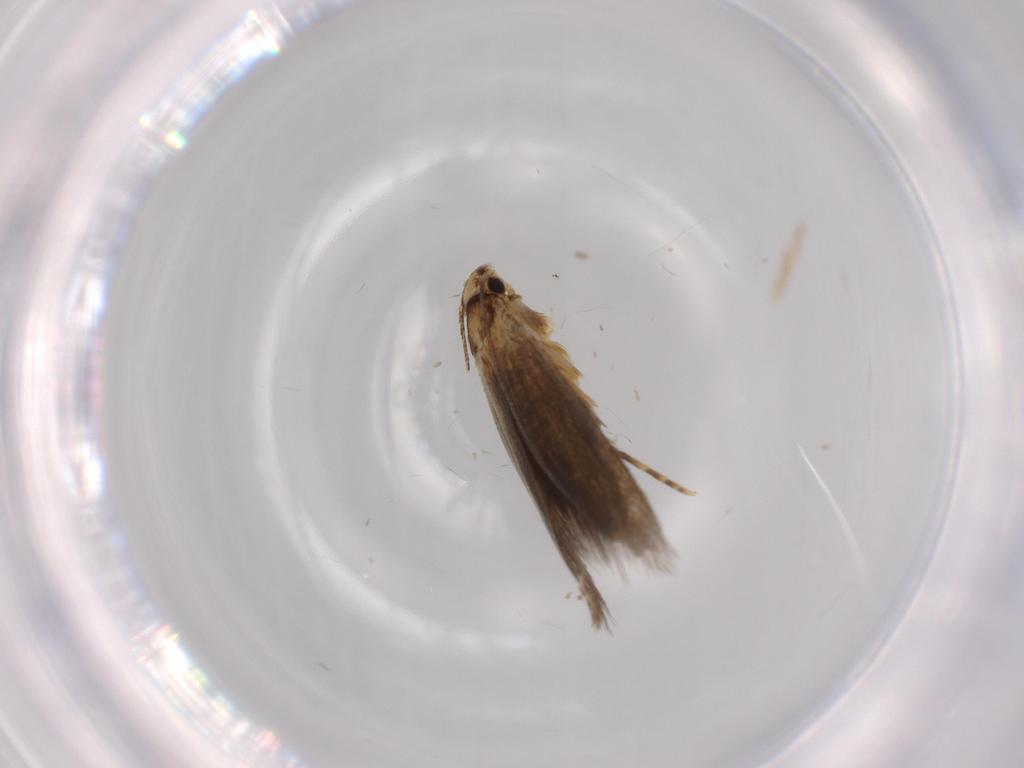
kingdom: Animalia
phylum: Arthropoda
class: Insecta
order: Lepidoptera
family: Tineidae
